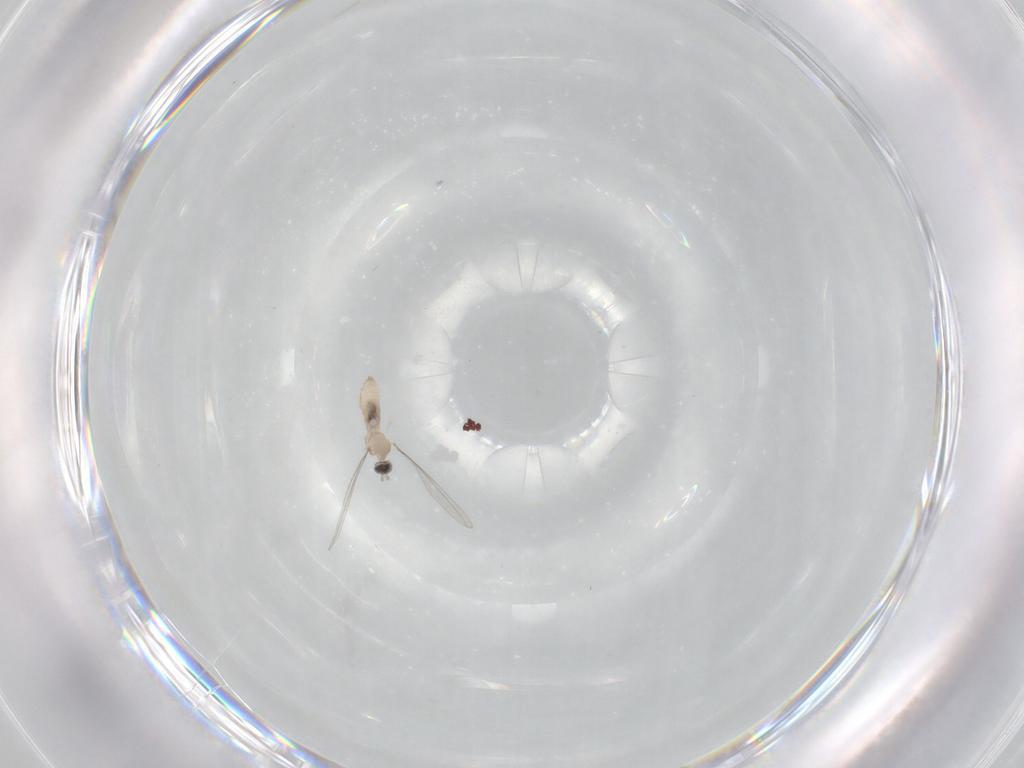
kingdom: Animalia
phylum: Arthropoda
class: Insecta
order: Diptera
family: Cecidomyiidae
